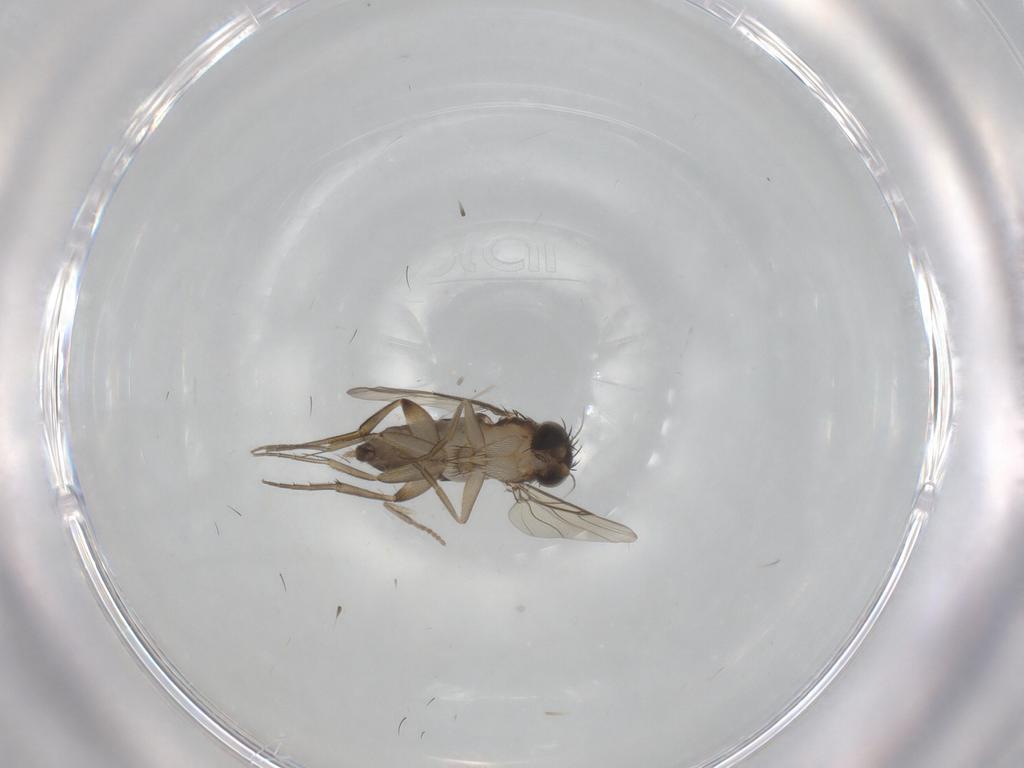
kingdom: Animalia
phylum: Arthropoda
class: Insecta
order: Diptera
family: Phoridae
